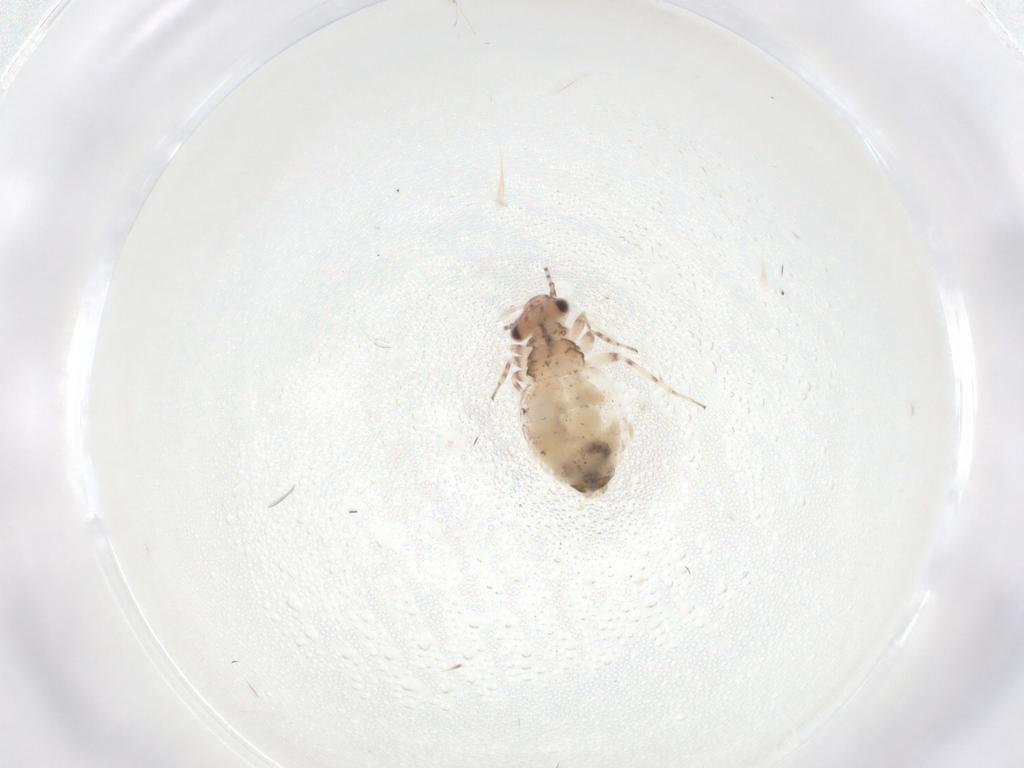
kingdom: Animalia
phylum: Arthropoda
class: Insecta
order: Psocodea
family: Trogiidae
